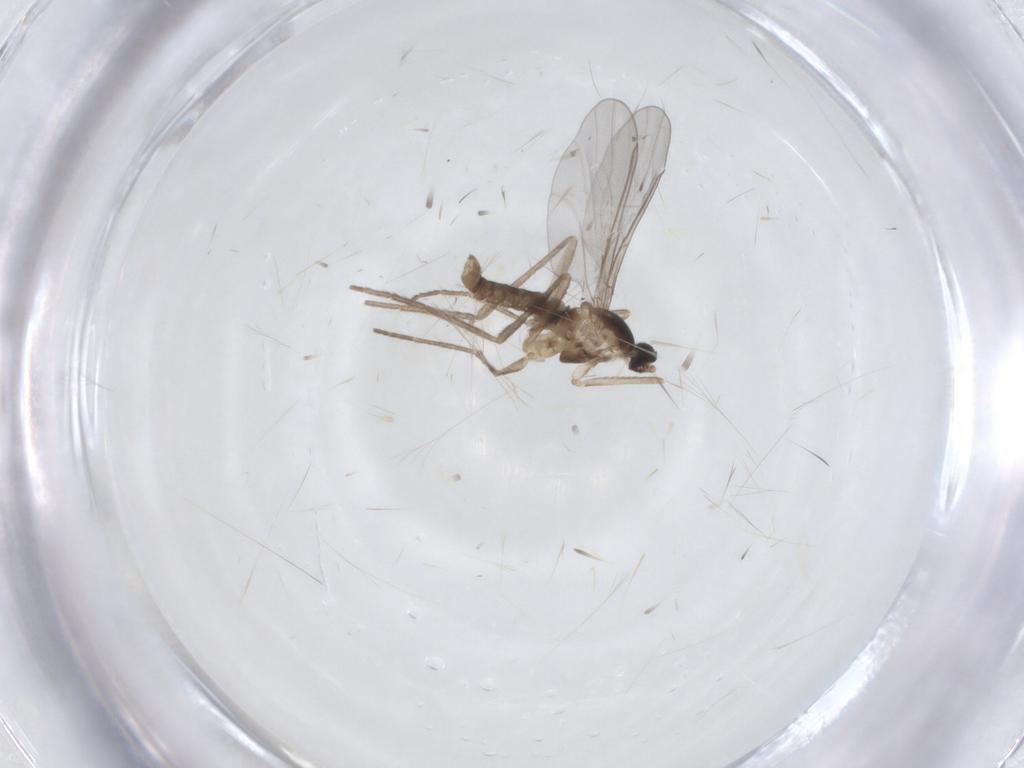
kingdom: Animalia
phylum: Arthropoda
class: Insecta
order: Diptera
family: Cecidomyiidae
